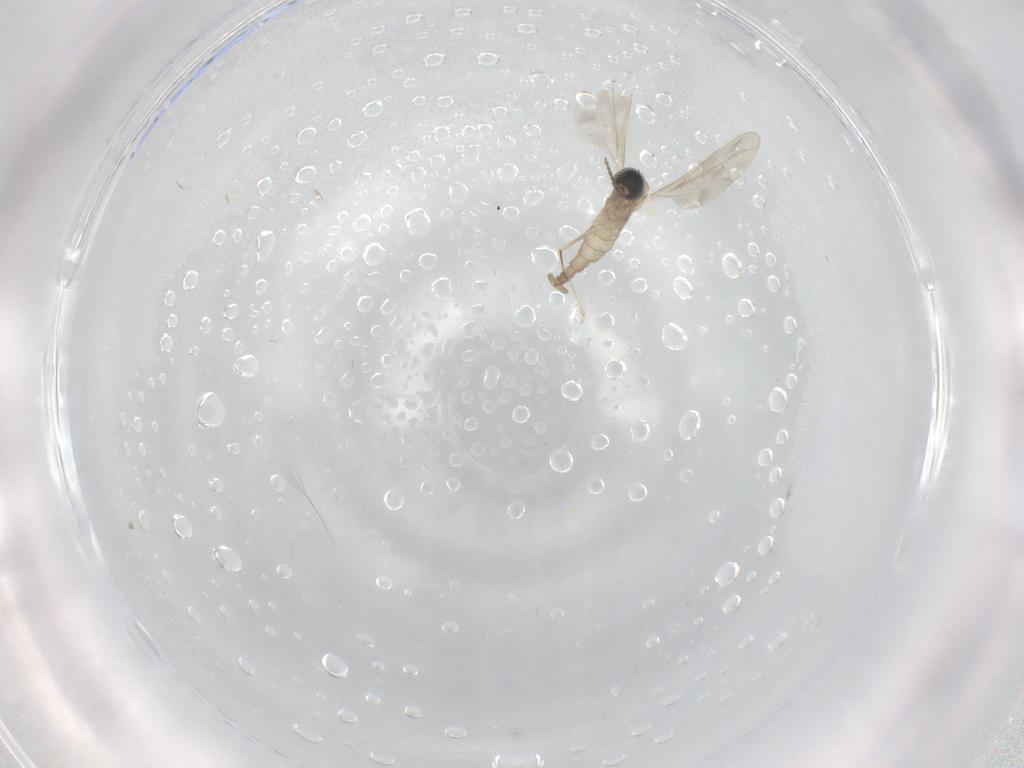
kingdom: Animalia
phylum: Arthropoda
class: Insecta
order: Diptera
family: Cecidomyiidae
